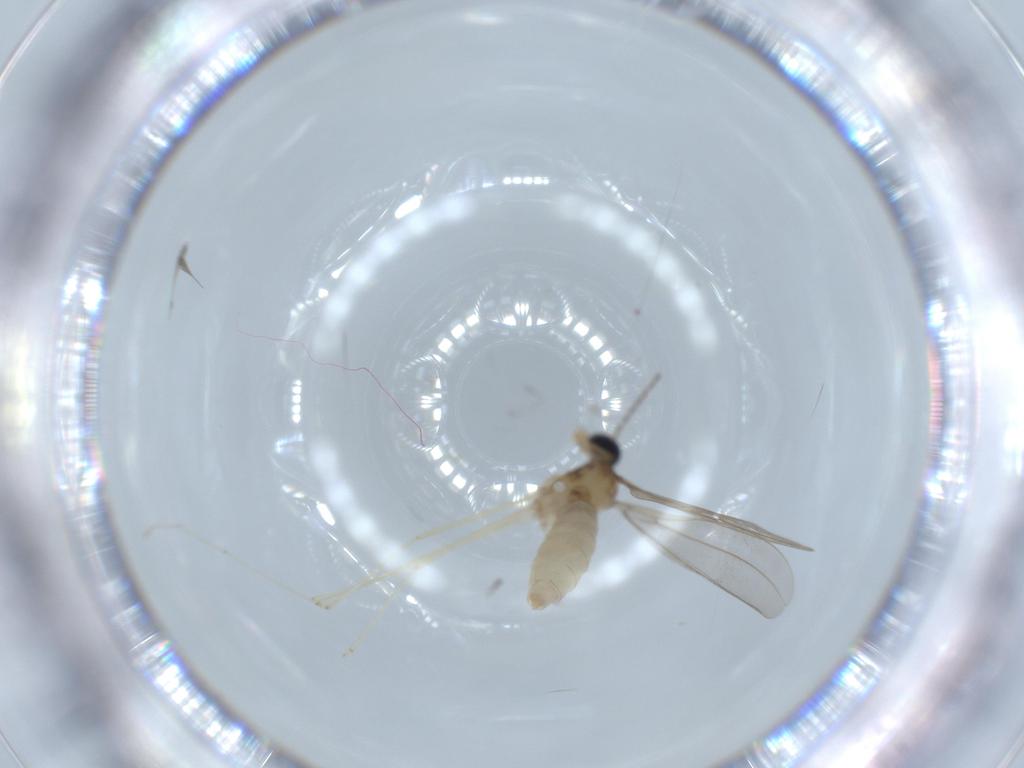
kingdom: Animalia
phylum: Arthropoda
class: Insecta
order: Diptera
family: Cecidomyiidae
